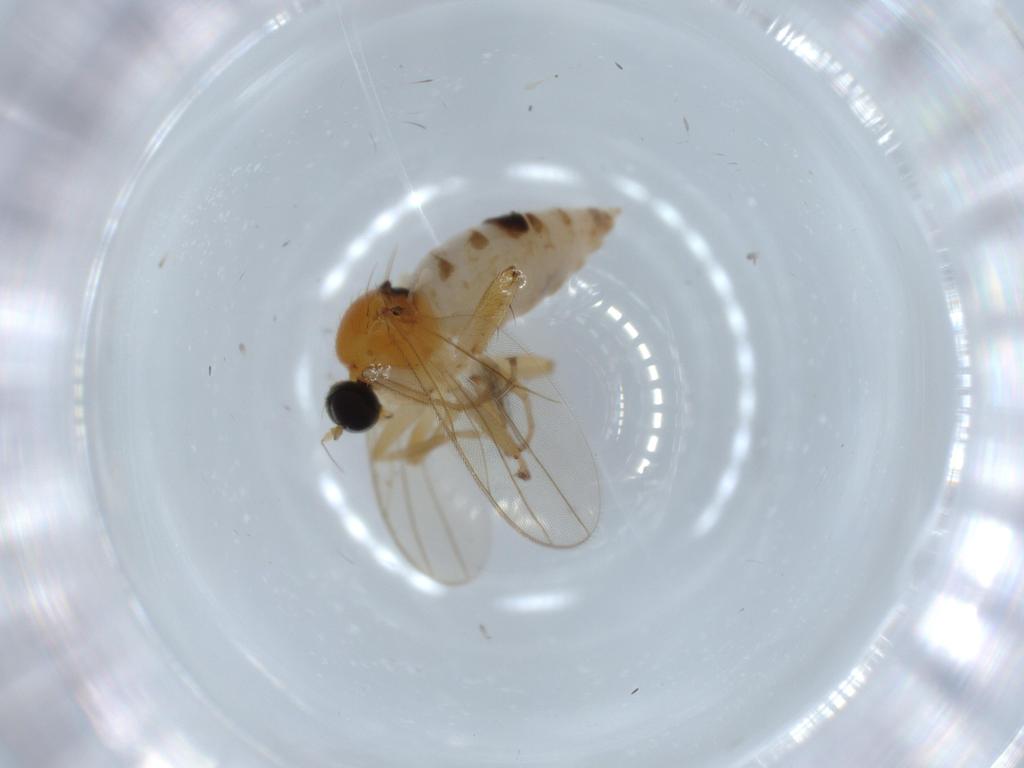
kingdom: Animalia
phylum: Arthropoda
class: Insecta
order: Diptera
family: Hybotidae
